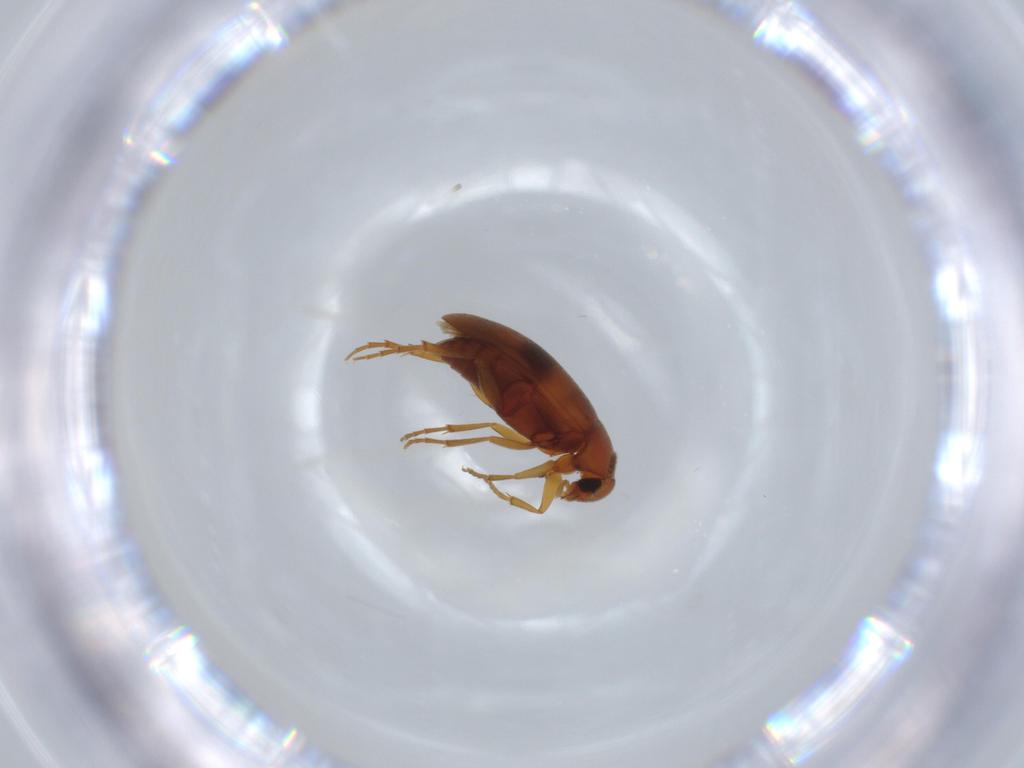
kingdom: Animalia
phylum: Arthropoda
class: Insecta
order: Coleoptera
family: Scraptiidae
